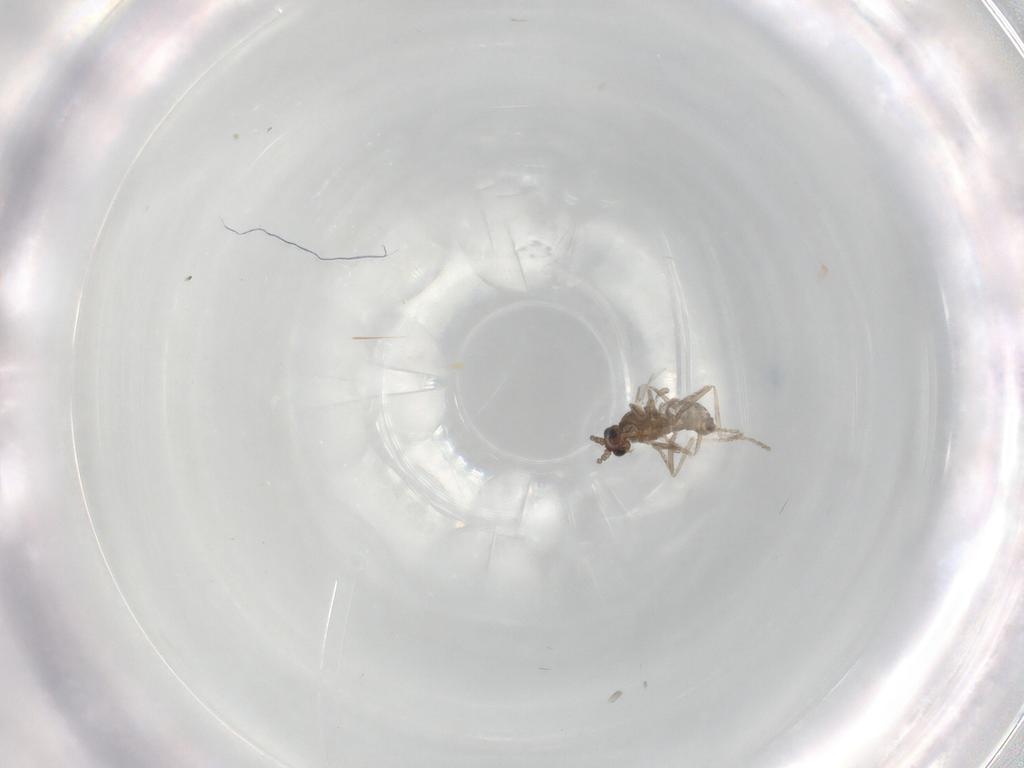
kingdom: Animalia
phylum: Arthropoda
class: Insecta
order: Diptera
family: Cecidomyiidae
